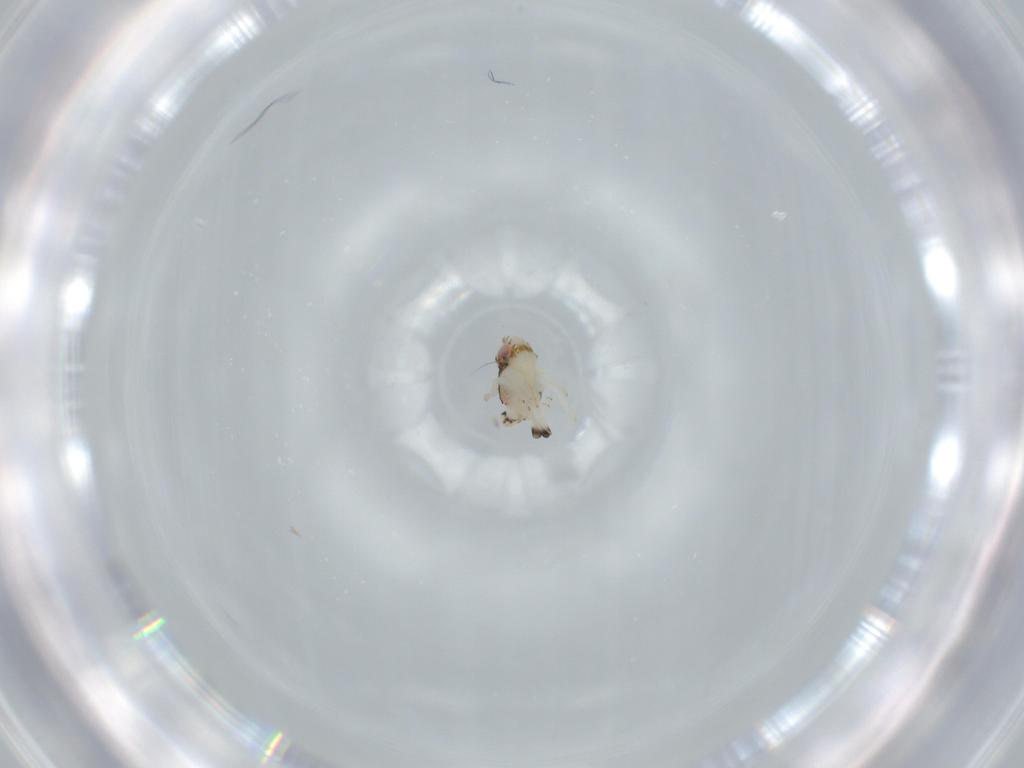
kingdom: Animalia
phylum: Arthropoda
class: Insecta
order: Hemiptera
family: Nogodinidae
